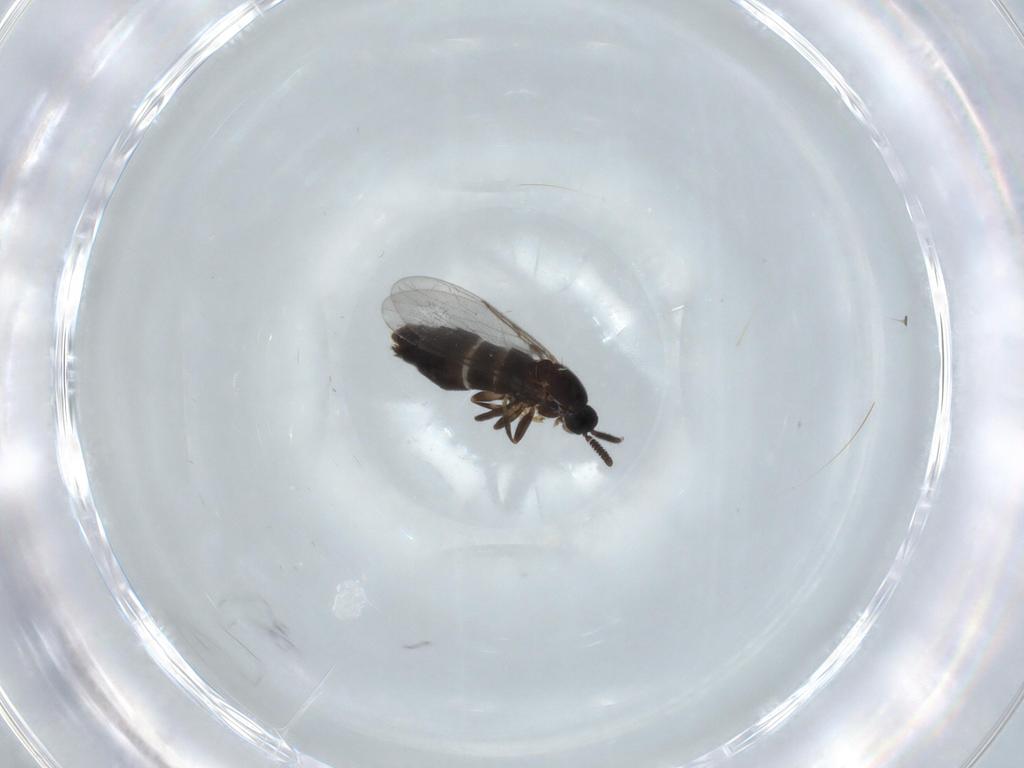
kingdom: Animalia
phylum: Arthropoda
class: Insecta
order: Diptera
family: Scatopsidae
